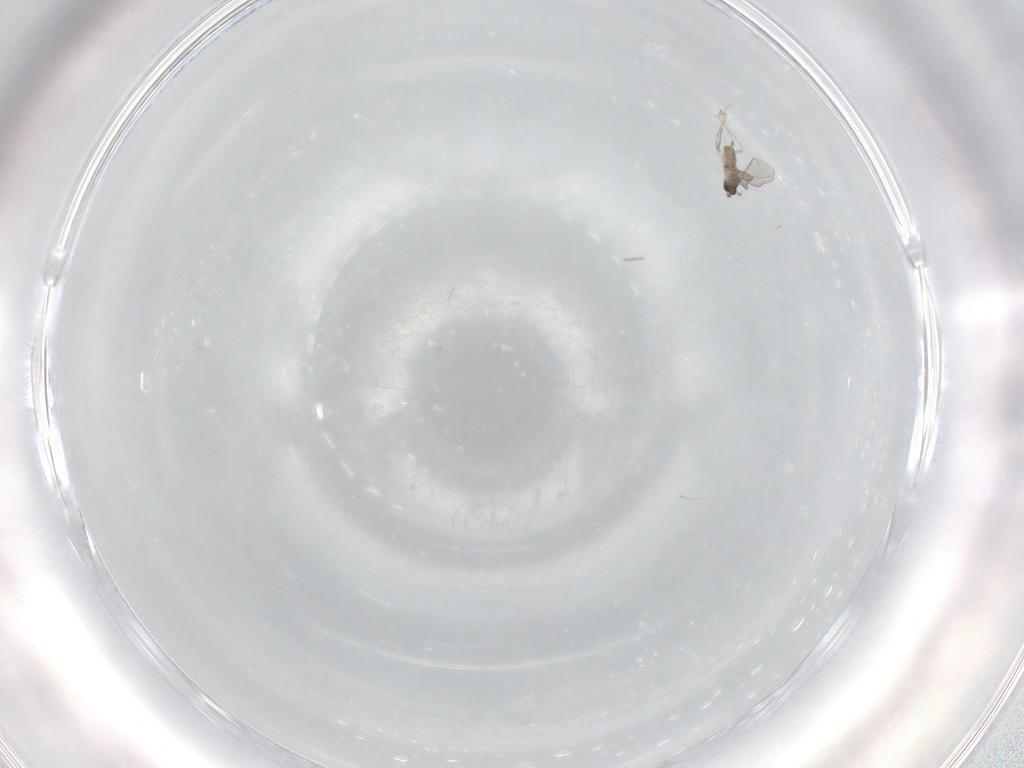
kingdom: Animalia
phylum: Arthropoda
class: Insecta
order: Diptera
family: Cecidomyiidae
